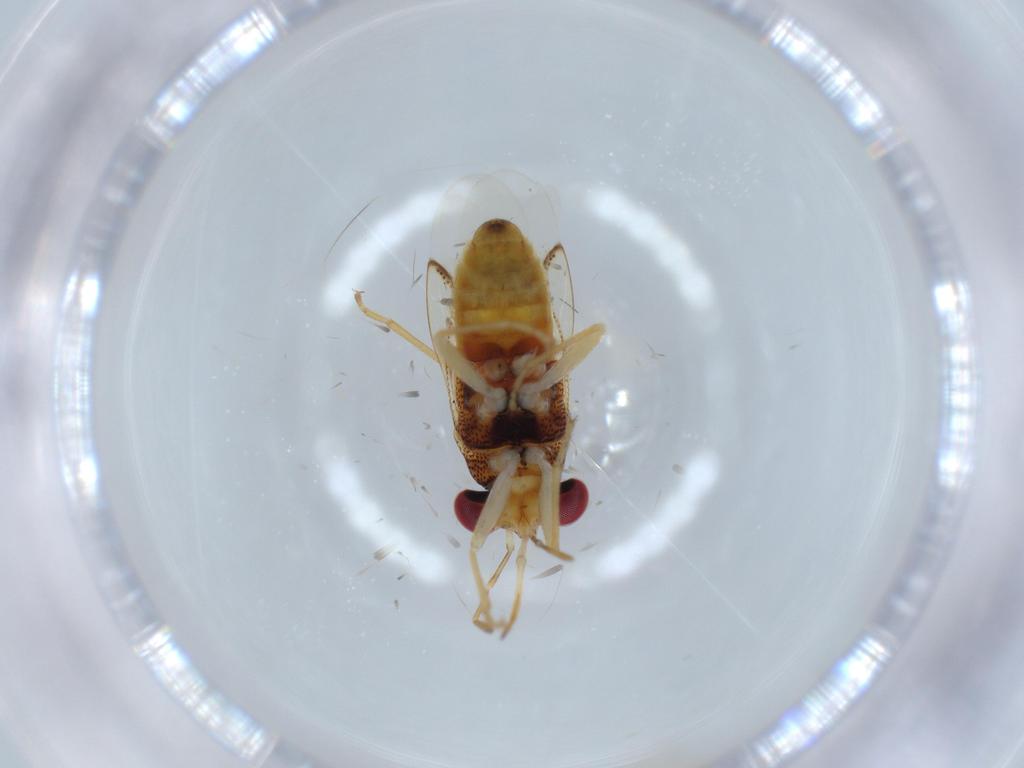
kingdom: Animalia
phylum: Arthropoda
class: Insecta
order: Hemiptera
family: Geocoridae
